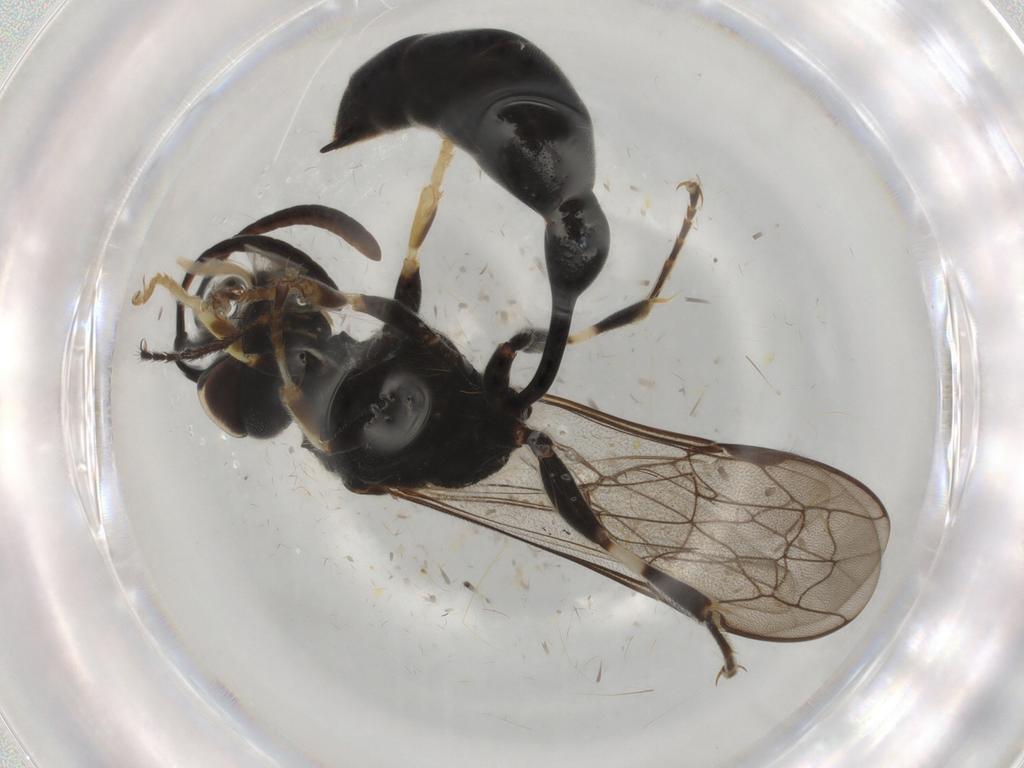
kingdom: Animalia
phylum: Arthropoda
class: Insecta
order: Hymenoptera
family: Psenidae
